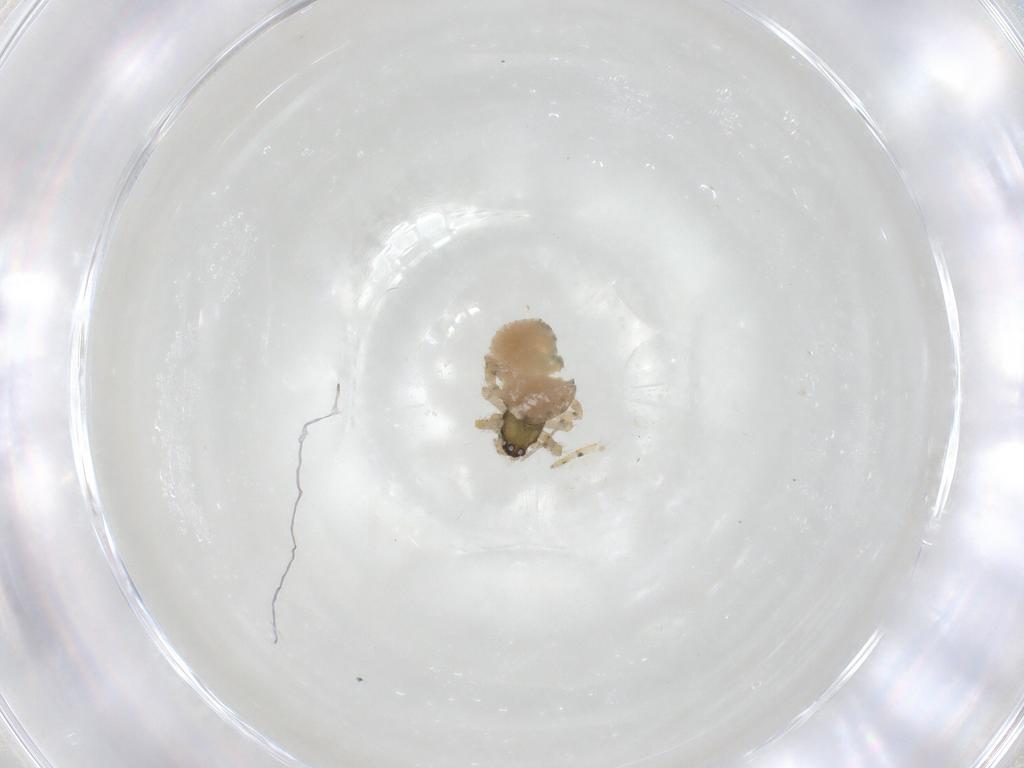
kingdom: Animalia
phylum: Arthropoda
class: Arachnida
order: Araneae
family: Theridiidae
